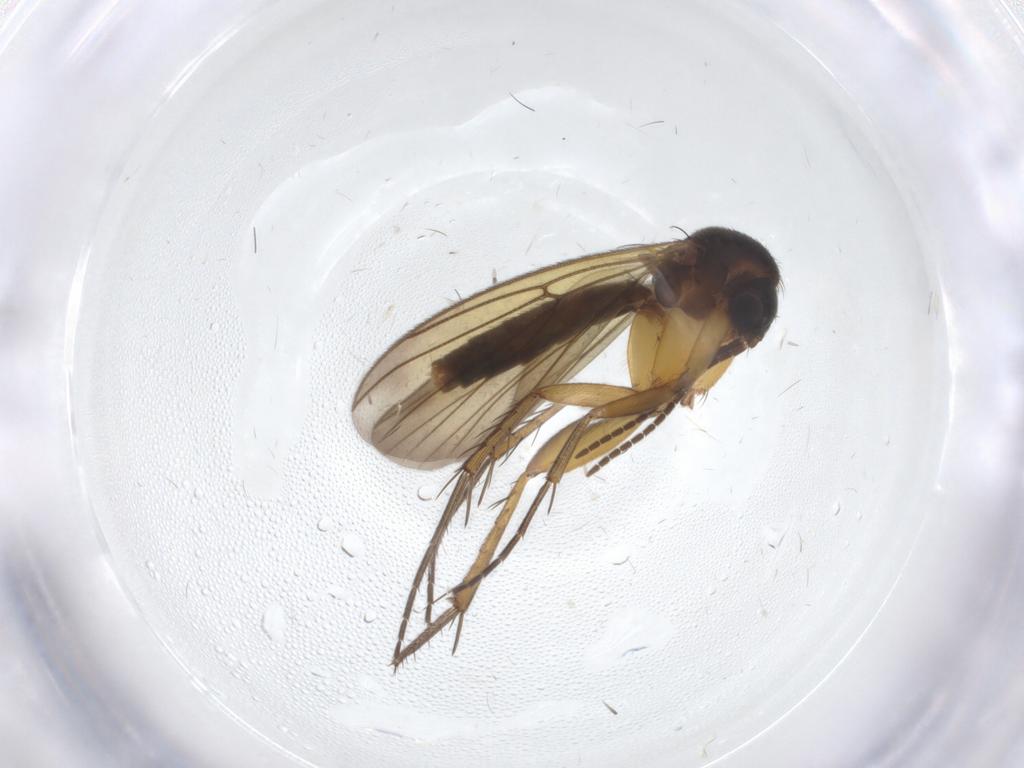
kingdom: Animalia
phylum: Arthropoda
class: Insecta
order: Diptera
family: Mycetophilidae
